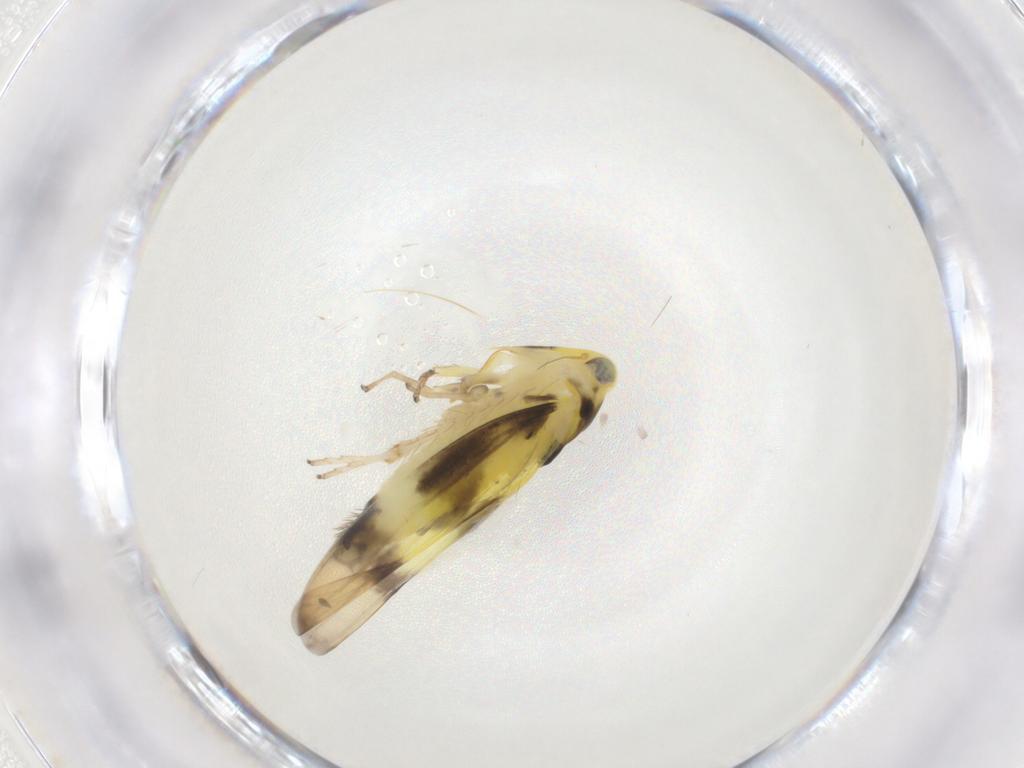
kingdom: Animalia
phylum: Arthropoda
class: Insecta
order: Hemiptera
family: Cicadellidae
